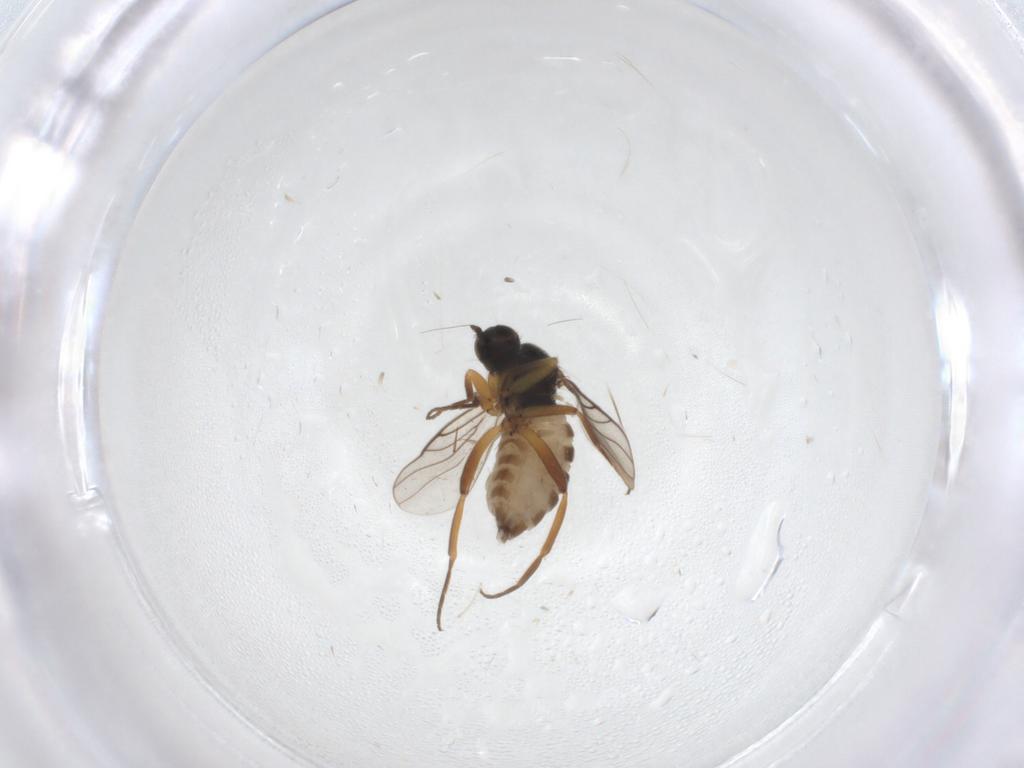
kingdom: Animalia
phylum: Arthropoda
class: Insecta
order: Diptera
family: Hybotidae
